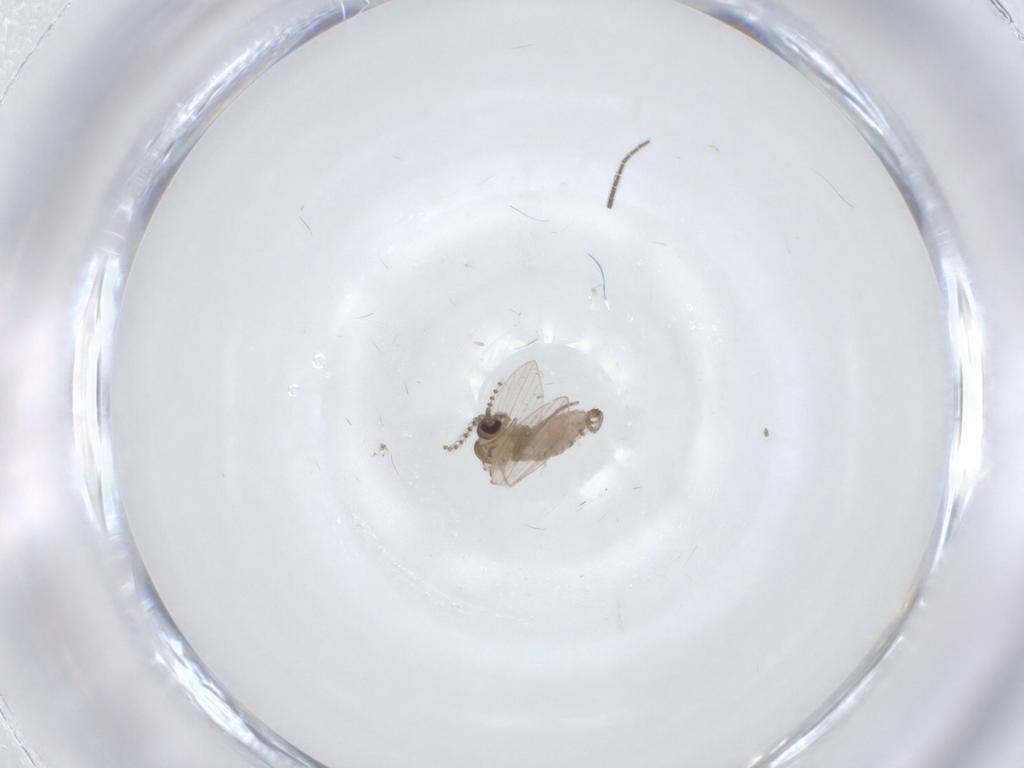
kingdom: Animalia
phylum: Arthropoda
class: Insecta
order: Diptera
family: Psychodidae
